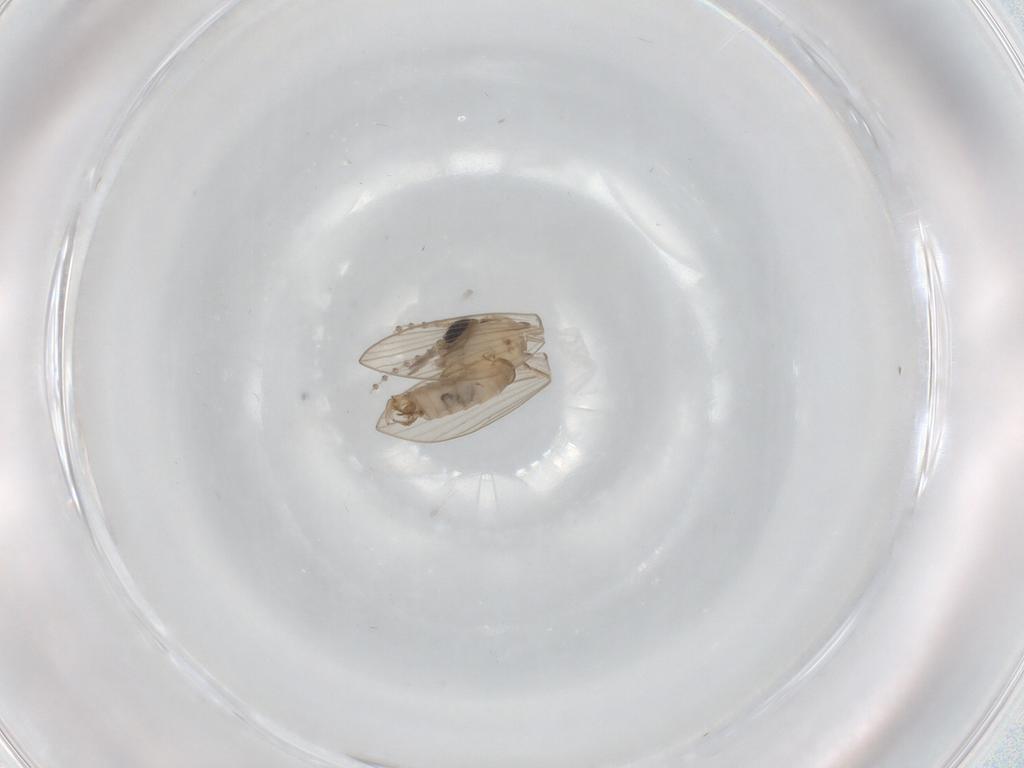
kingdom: Animalia
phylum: Arthropoda
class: Insecta
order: Diptera
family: Psychodidae
